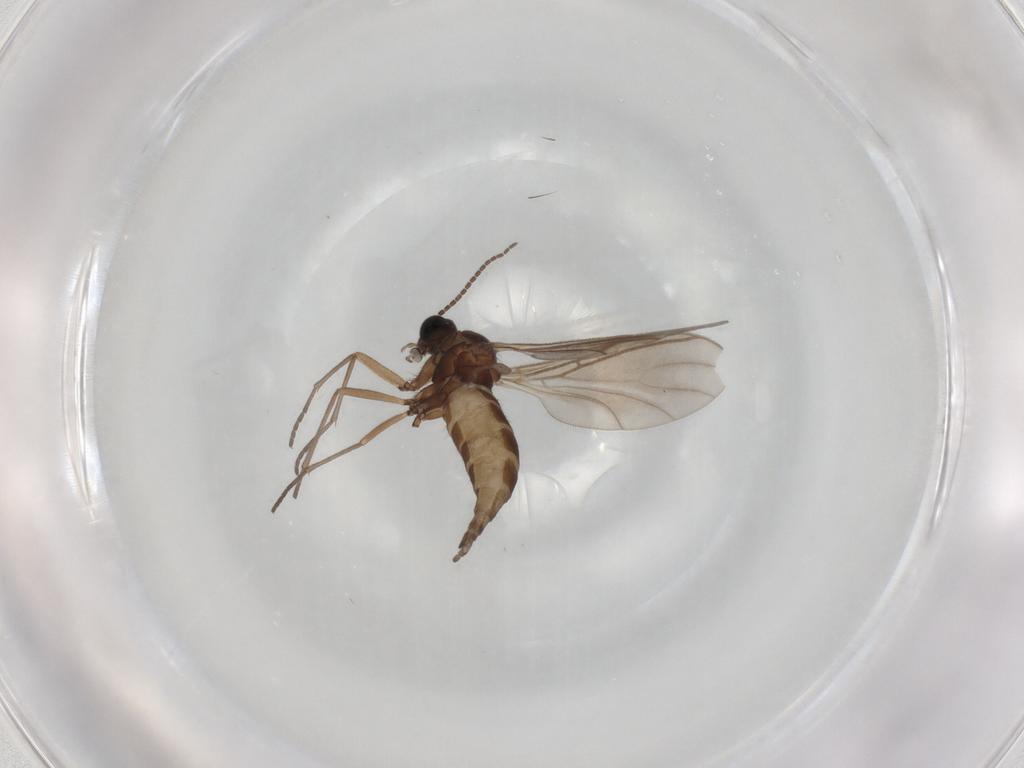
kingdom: Animalia
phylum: Arthropoda
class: Insecta
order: Diptera
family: Sciaridae
